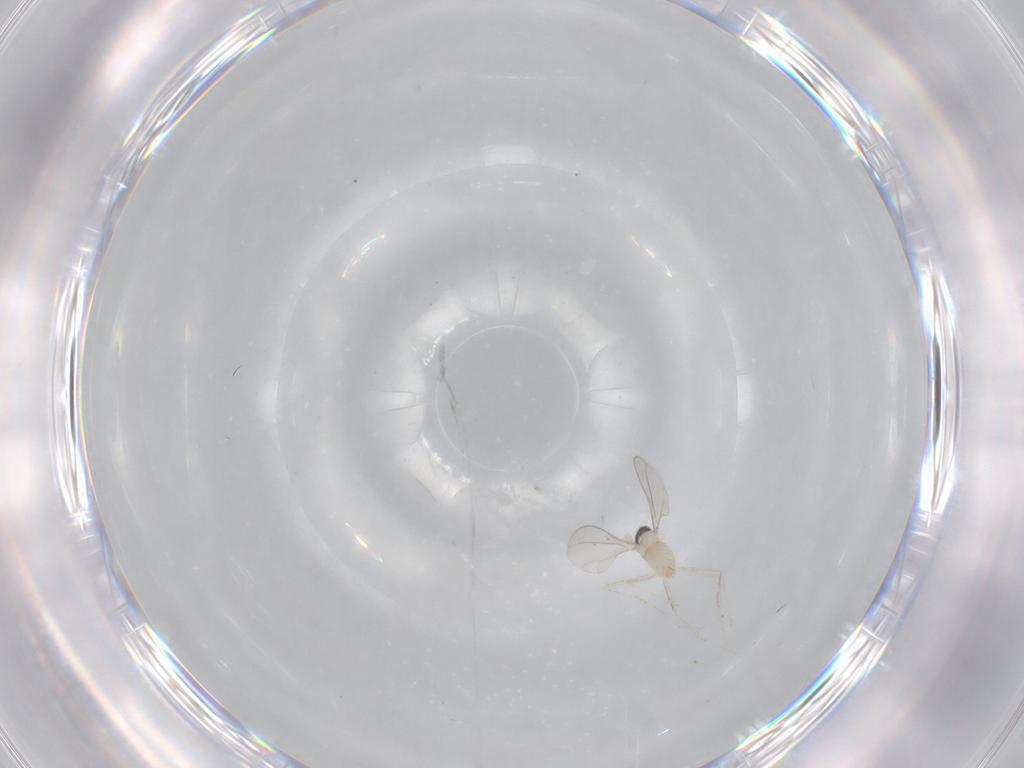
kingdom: Animalia
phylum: Arthropoda
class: Insecta
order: Diptera
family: Cecidomyiidae
